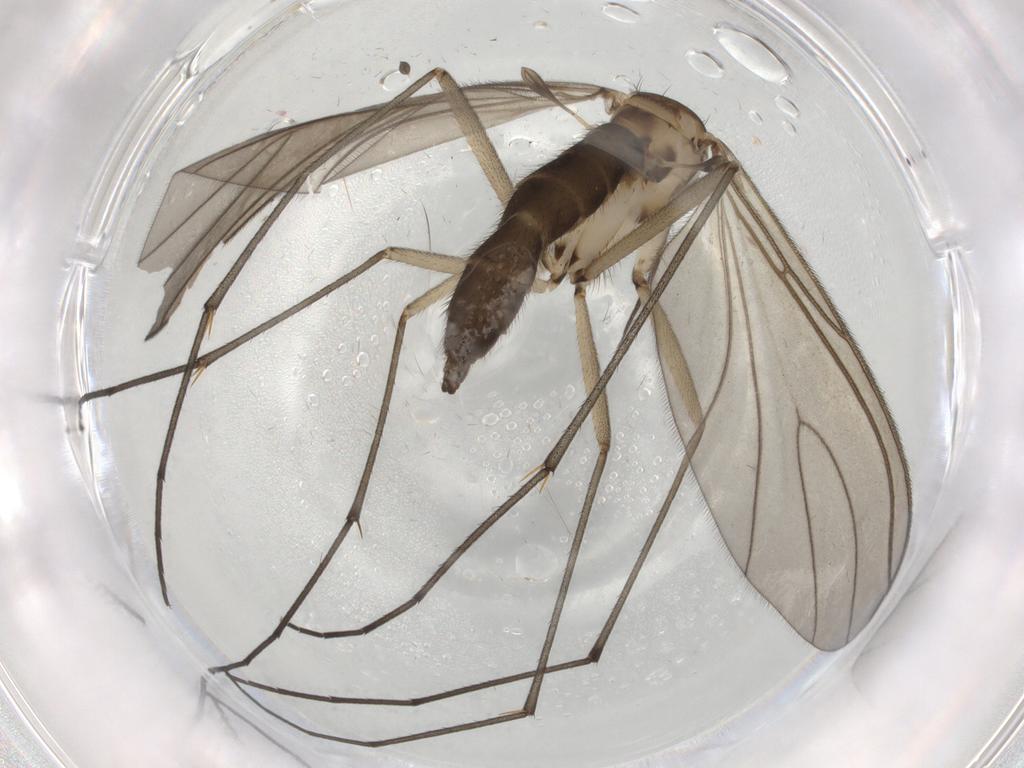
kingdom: Animalia
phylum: Arthropoda
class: Insecta
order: Diptera
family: Sciaridae
